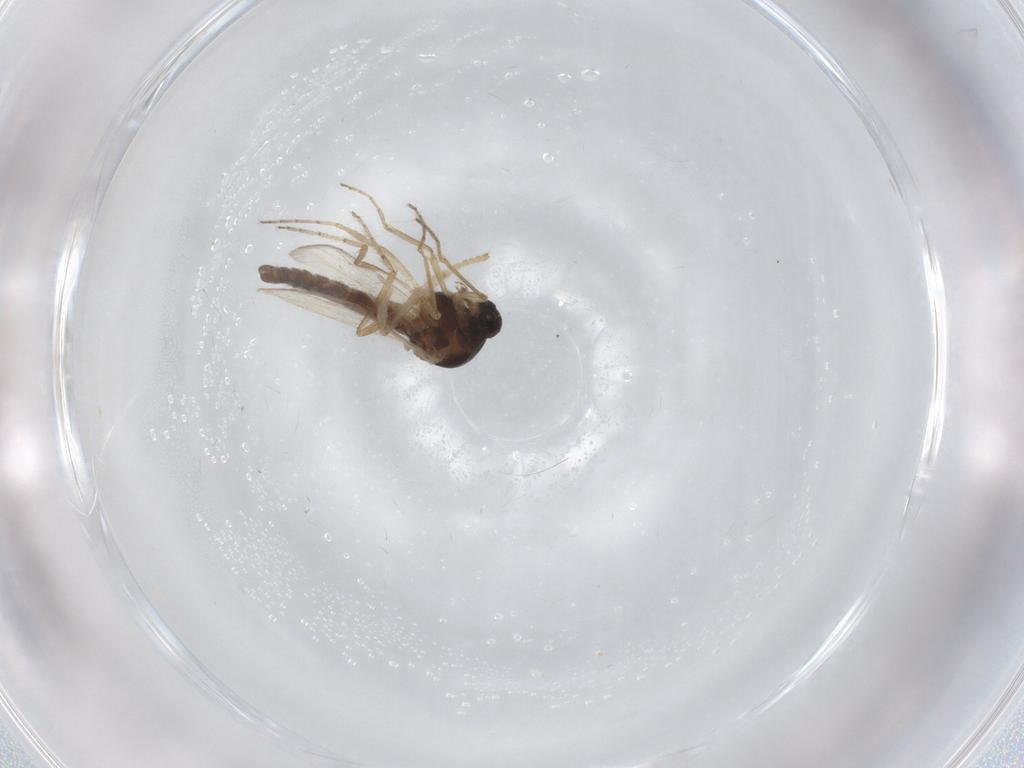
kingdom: Animalia
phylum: Arthropoda
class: Insecta
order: Diptera
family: Ceratopogonidae
